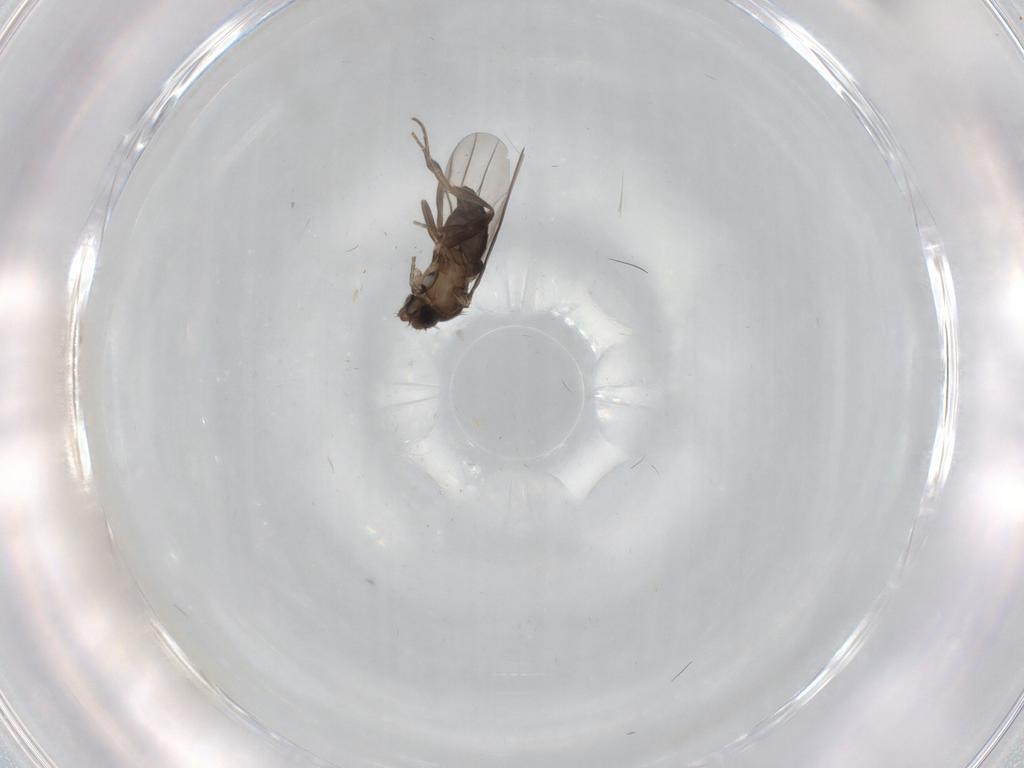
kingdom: Animalia
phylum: Arthropoda
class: Insecta
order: Diptera
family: Phoridae
